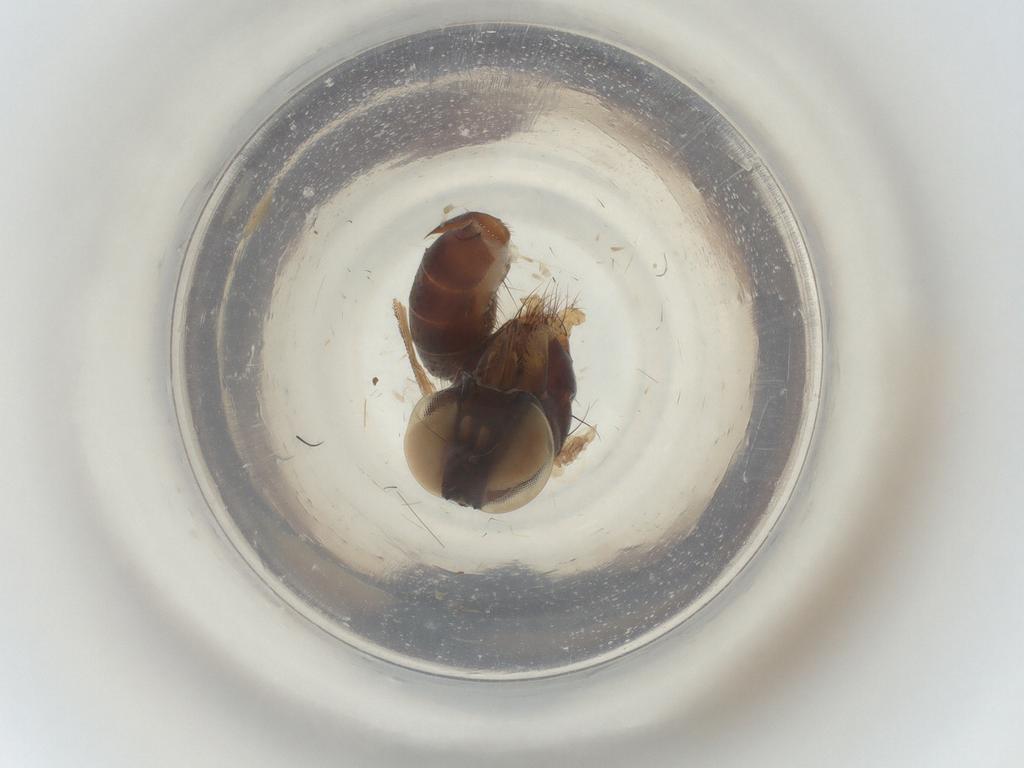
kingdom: Animalia
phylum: Arthropoda
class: Insecta
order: Diptera
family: Muscidae
